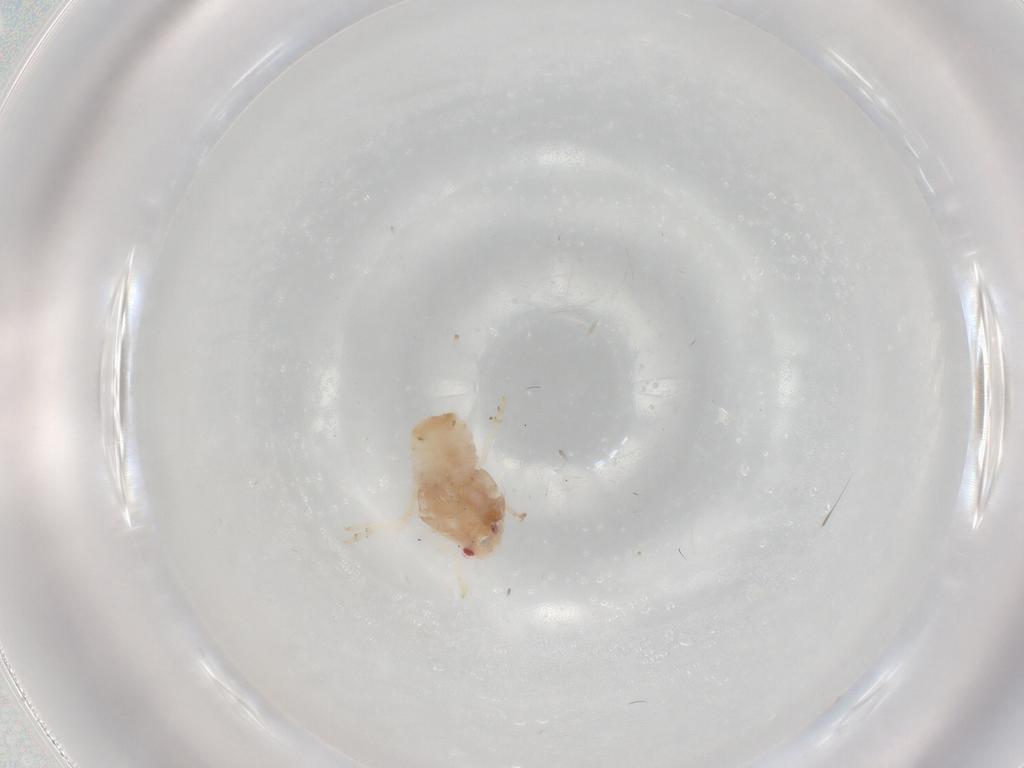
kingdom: Animalia
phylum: Arthropoda
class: Insecta
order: Hemiptera
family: Flatidae
